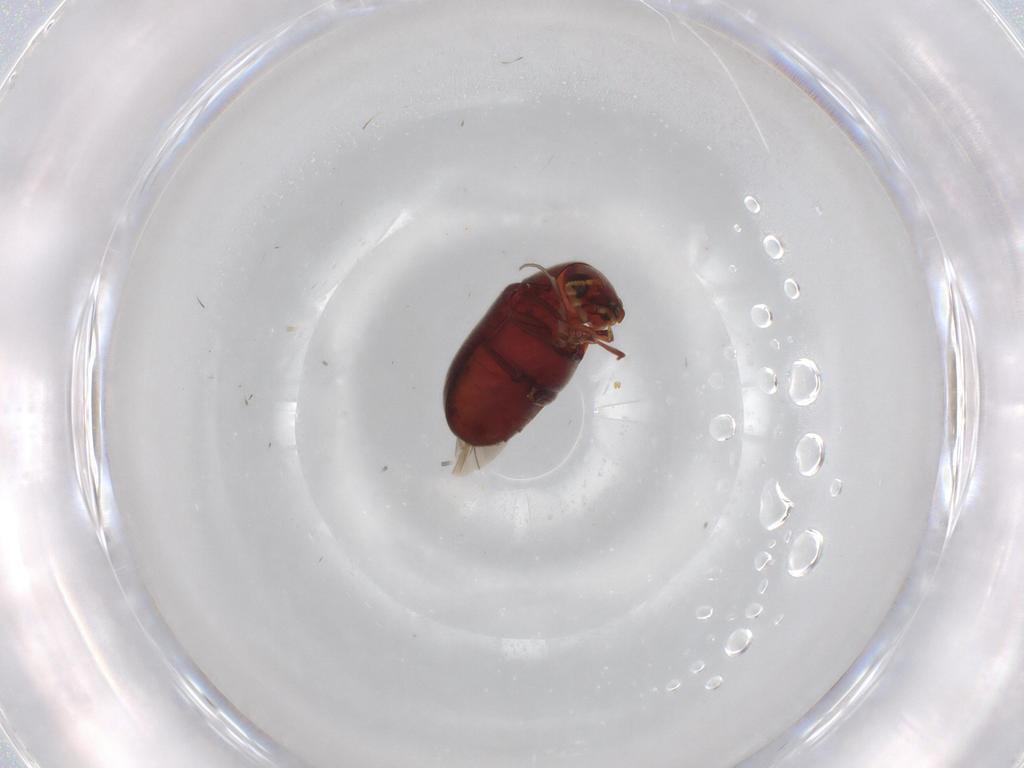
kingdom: Animalia
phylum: Arthropoda
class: Insecta
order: Coleoptera
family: Ptinidae
